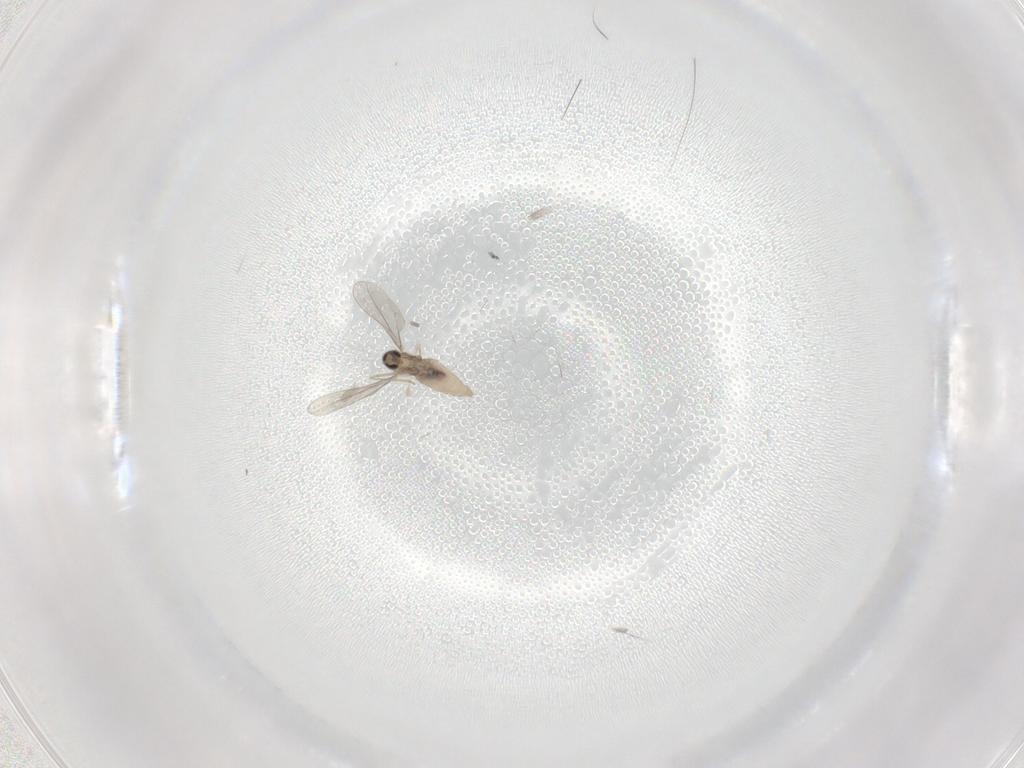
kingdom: Animalia
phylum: Arthropoda
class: Insecta
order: Diptera
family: Cecidomyiidae
